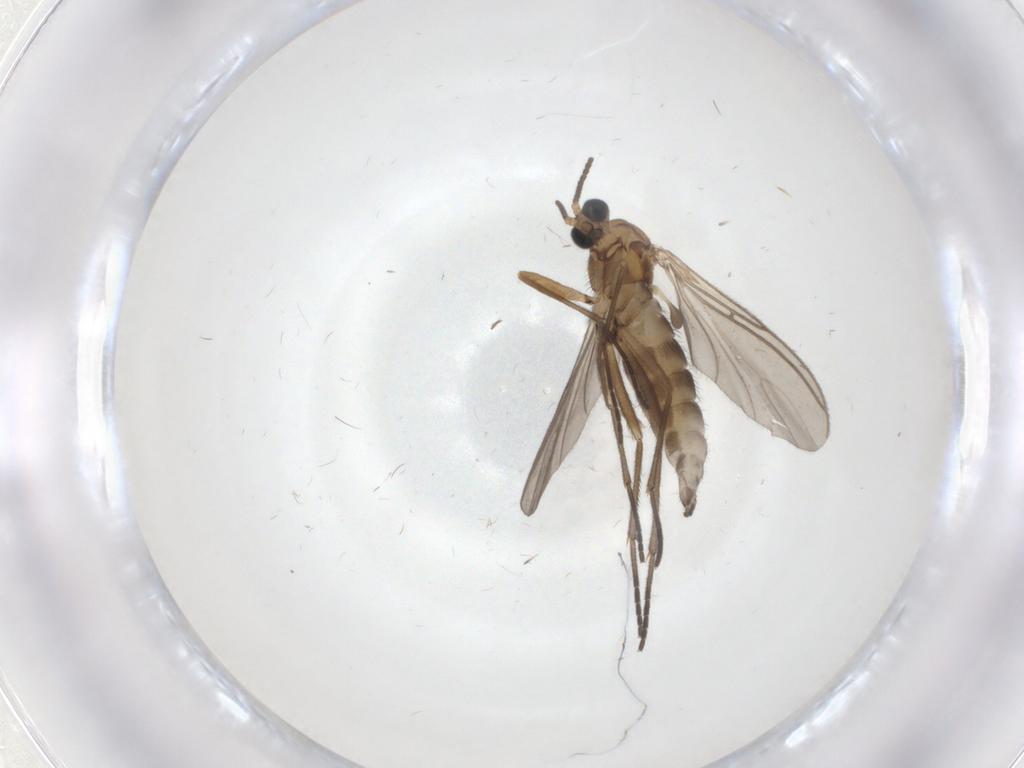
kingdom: Animalia
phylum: Arthropoda
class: Insecta
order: Diptera
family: Sciaridae
